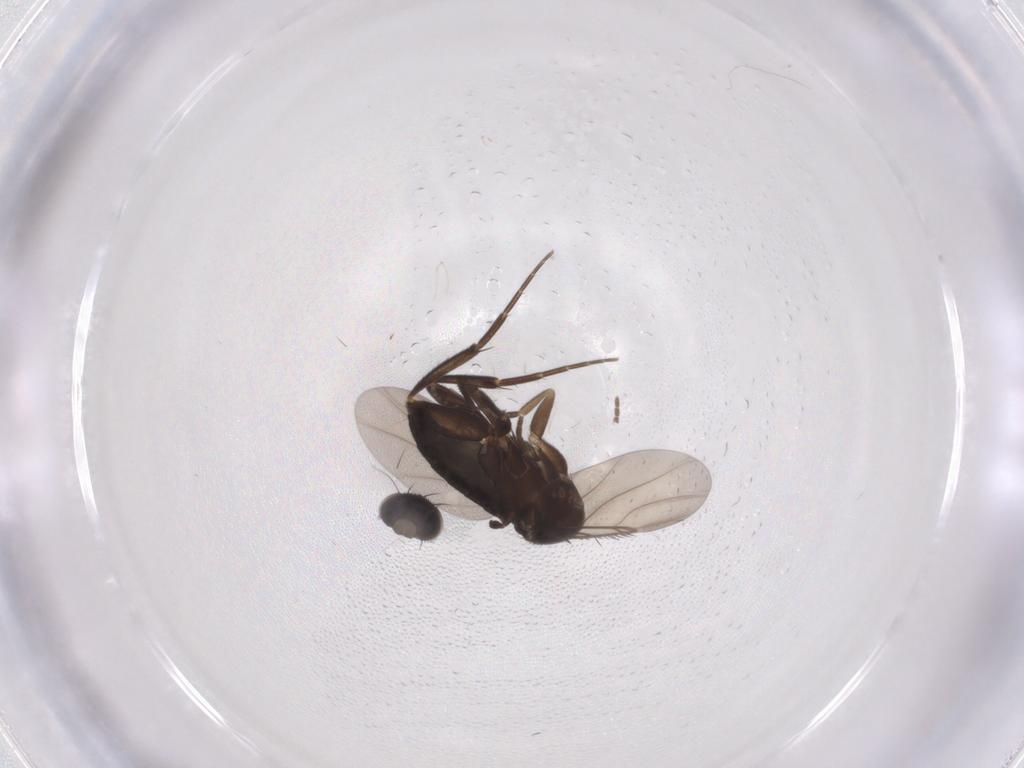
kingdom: Animalia
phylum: Arthropoda
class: Insecta
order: Diptera
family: Chironomidae
